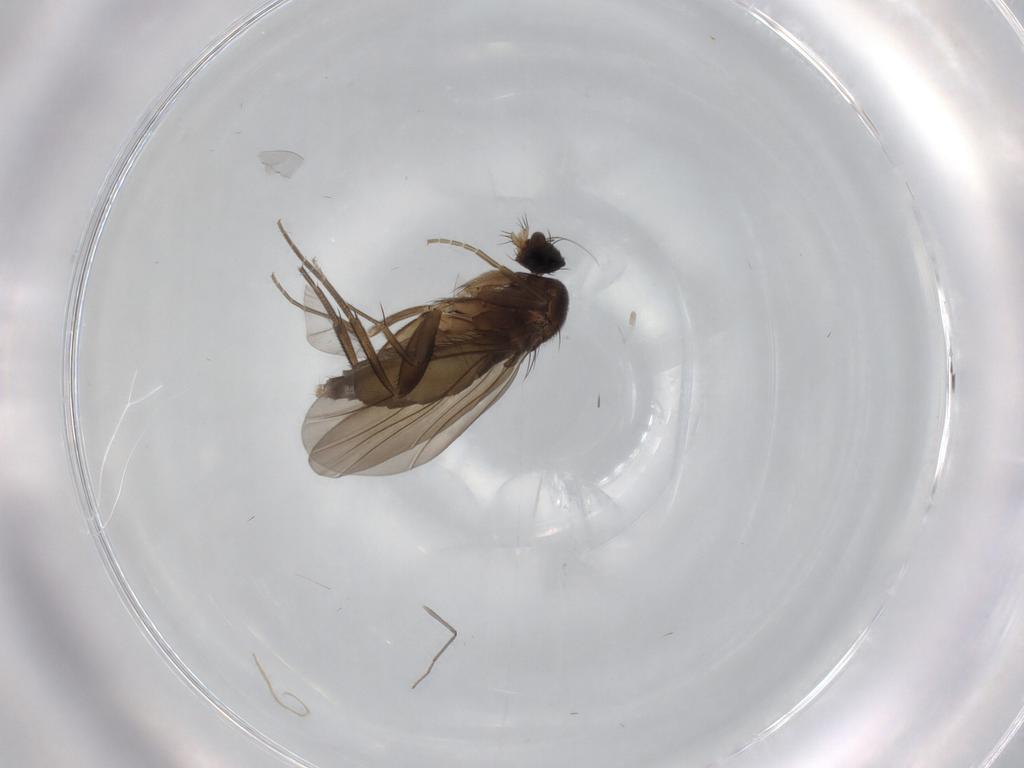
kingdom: Animalia
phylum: Arthropoda
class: Insecta
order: Diptera
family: Phoridae
